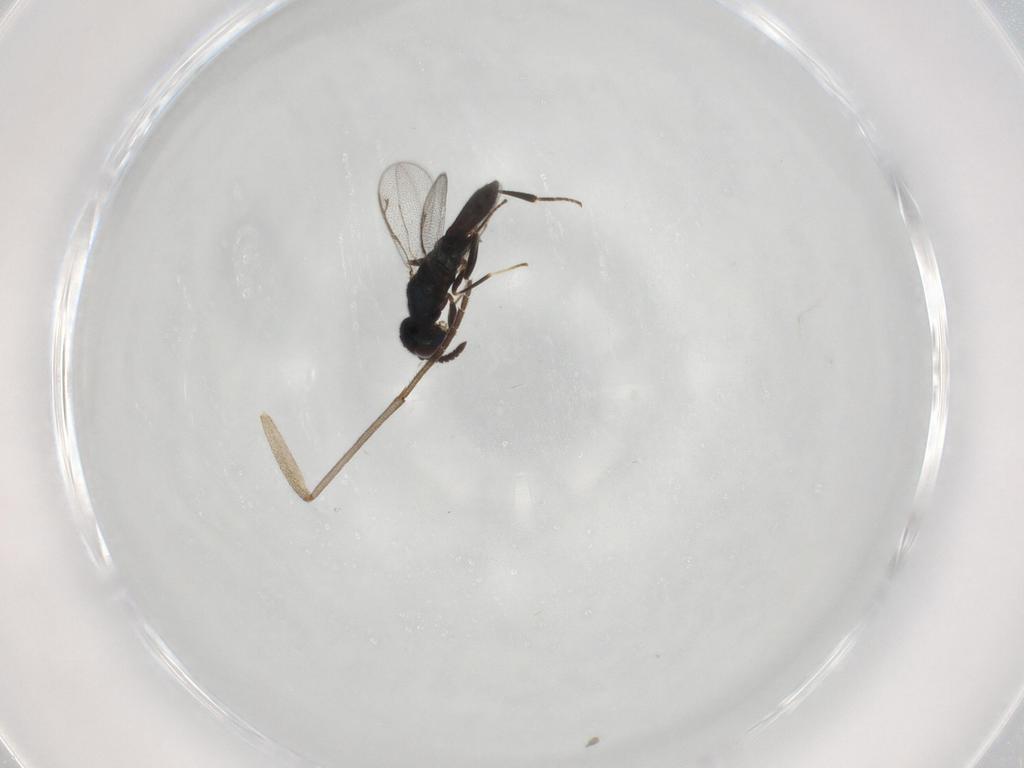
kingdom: Animalia
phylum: Arthropoda
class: Insecta
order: Hymenoptera
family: Cleonyminae
